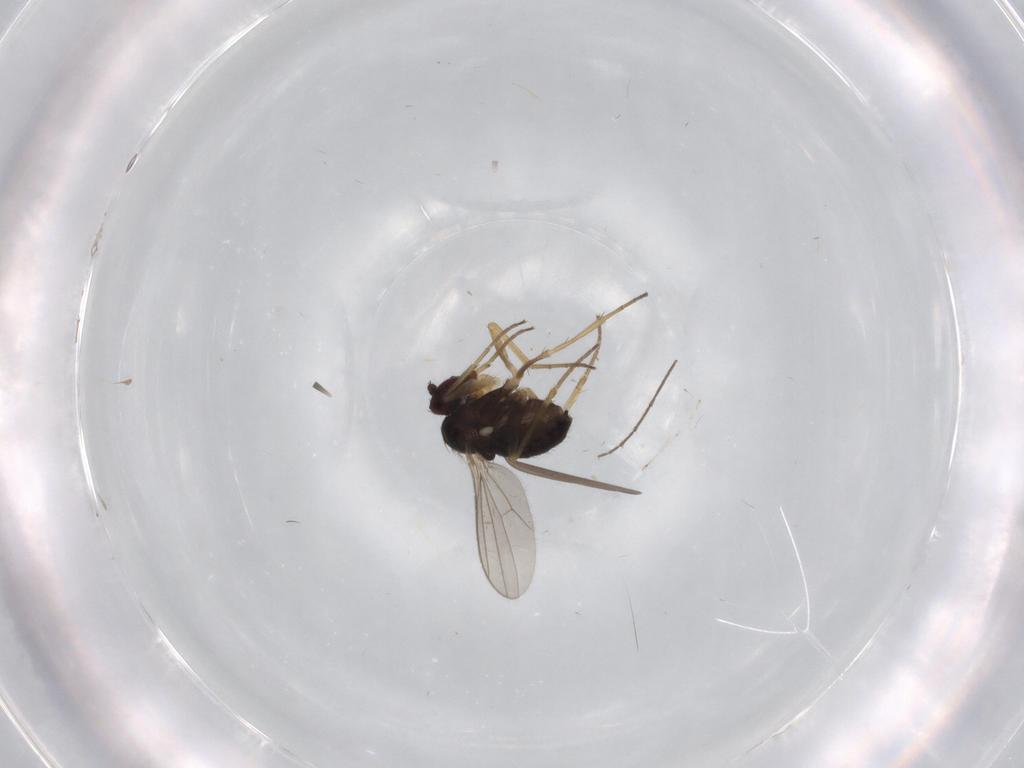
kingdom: Animalia
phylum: Arthropoda
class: Insecta
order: Diptera
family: Dolichopodidae
